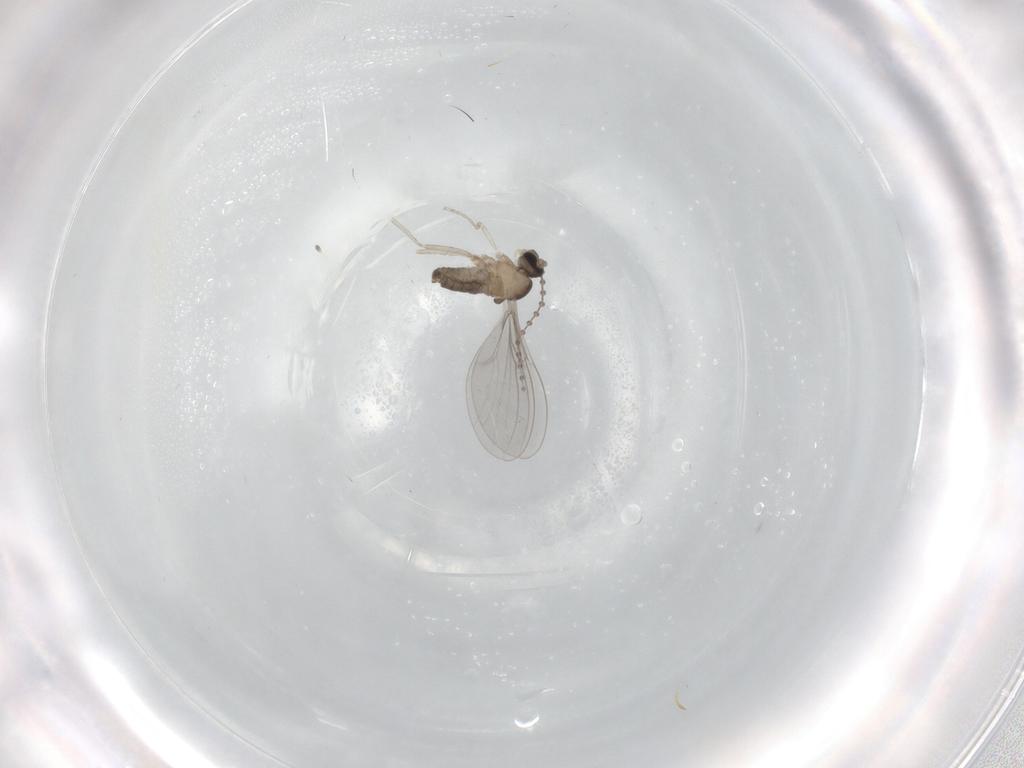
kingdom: Animalia
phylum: Arthropoda
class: Insecta
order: Diptera
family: Cecidomyiidae
